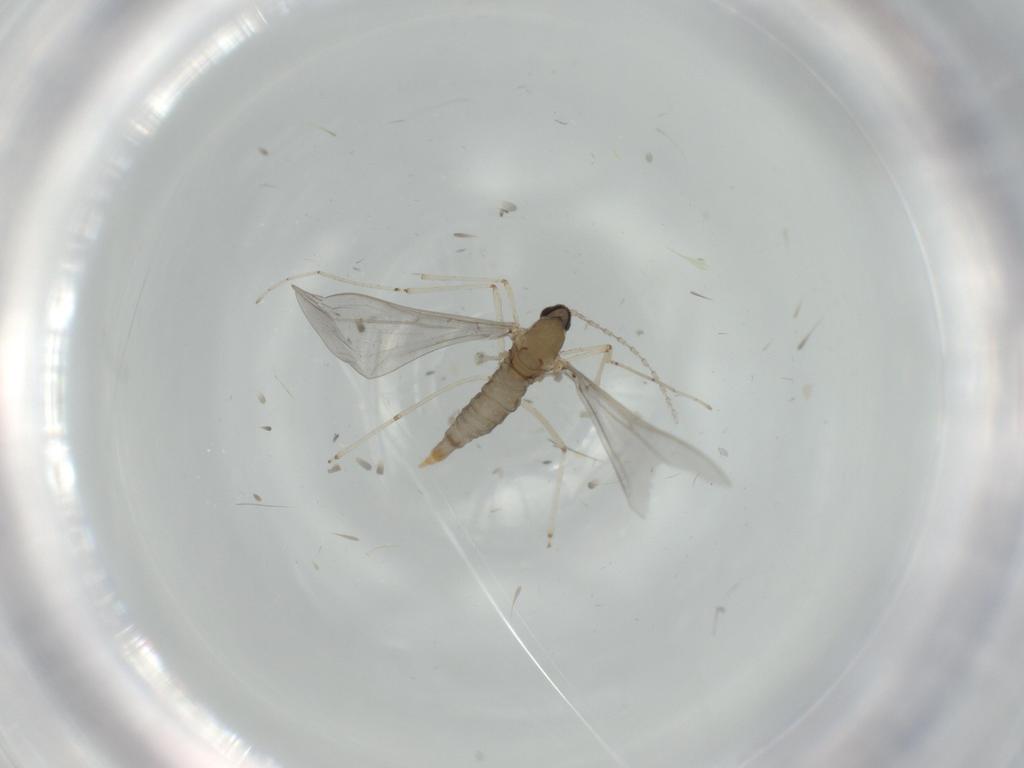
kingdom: Animalia
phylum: Arthropoda
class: Insecta
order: Diptera
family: Cecidomyiidae
